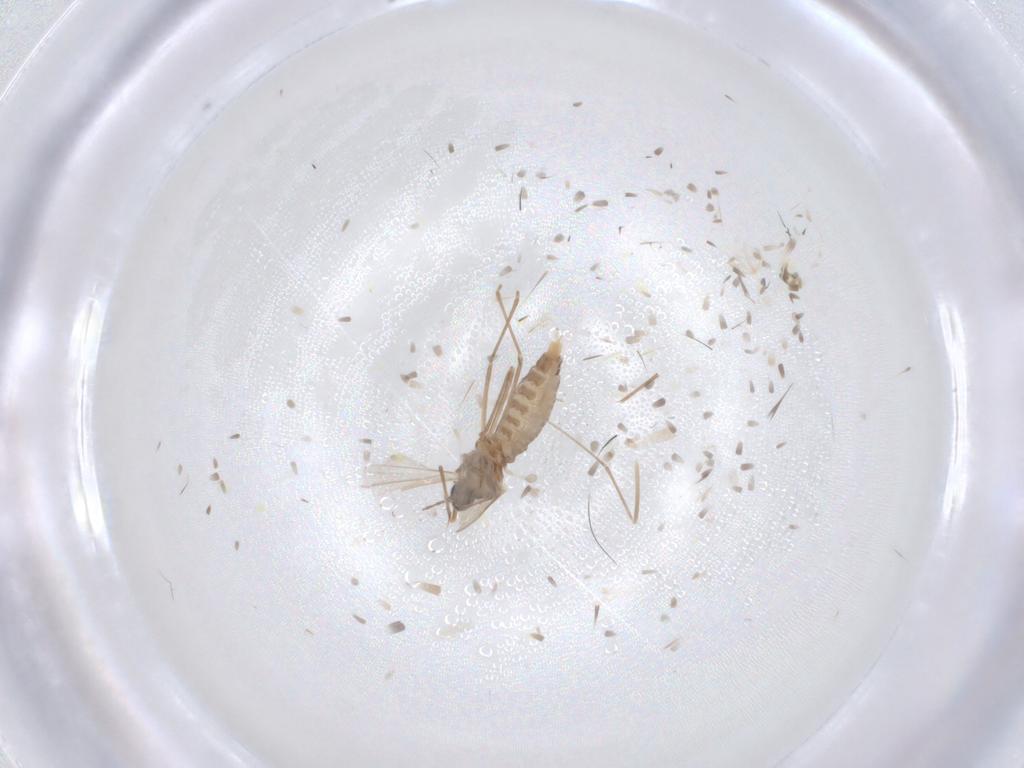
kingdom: Animalia
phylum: Arthropoda
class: Insecta
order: Diptera
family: Cecidomyiidae
